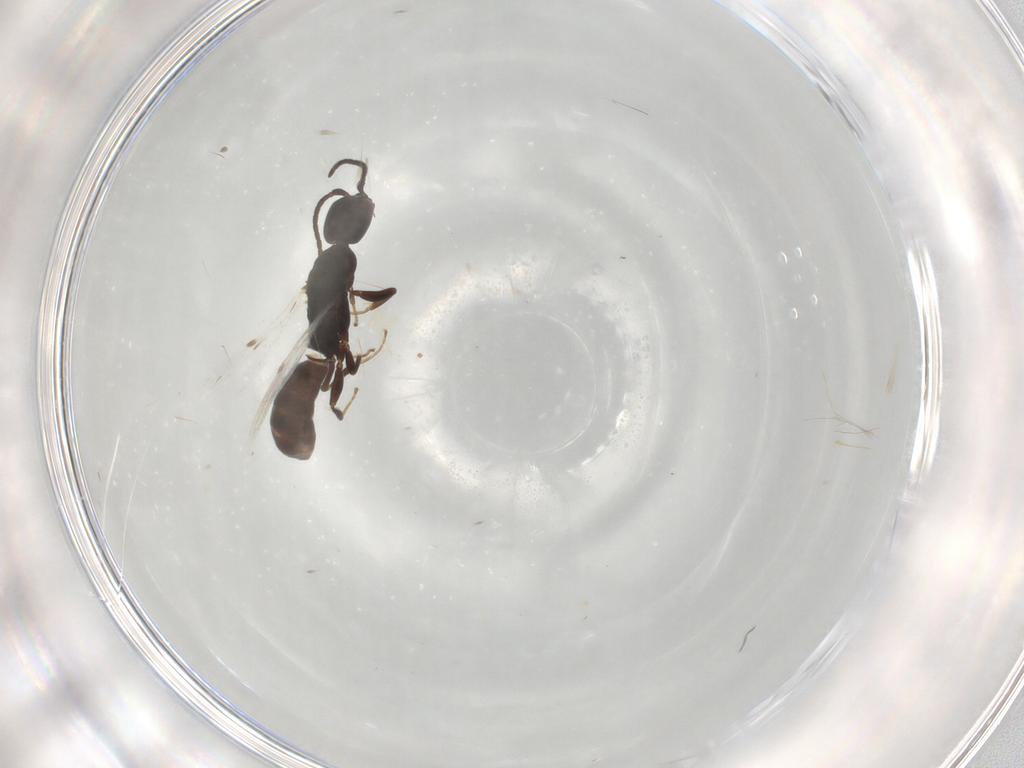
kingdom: Animalia
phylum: Arthropoda
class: Insecta
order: Hymenoptera
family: Bethylidae
